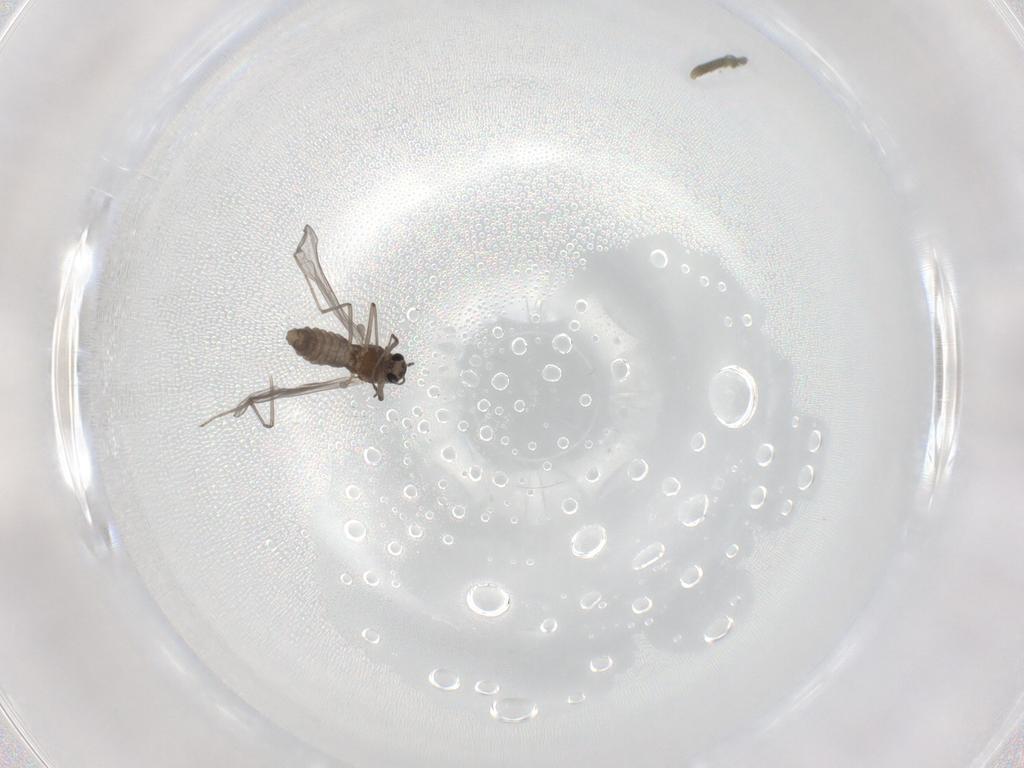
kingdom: Animalia
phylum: Arthropoda
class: Insecta
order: Diptera
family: Chironomidae
